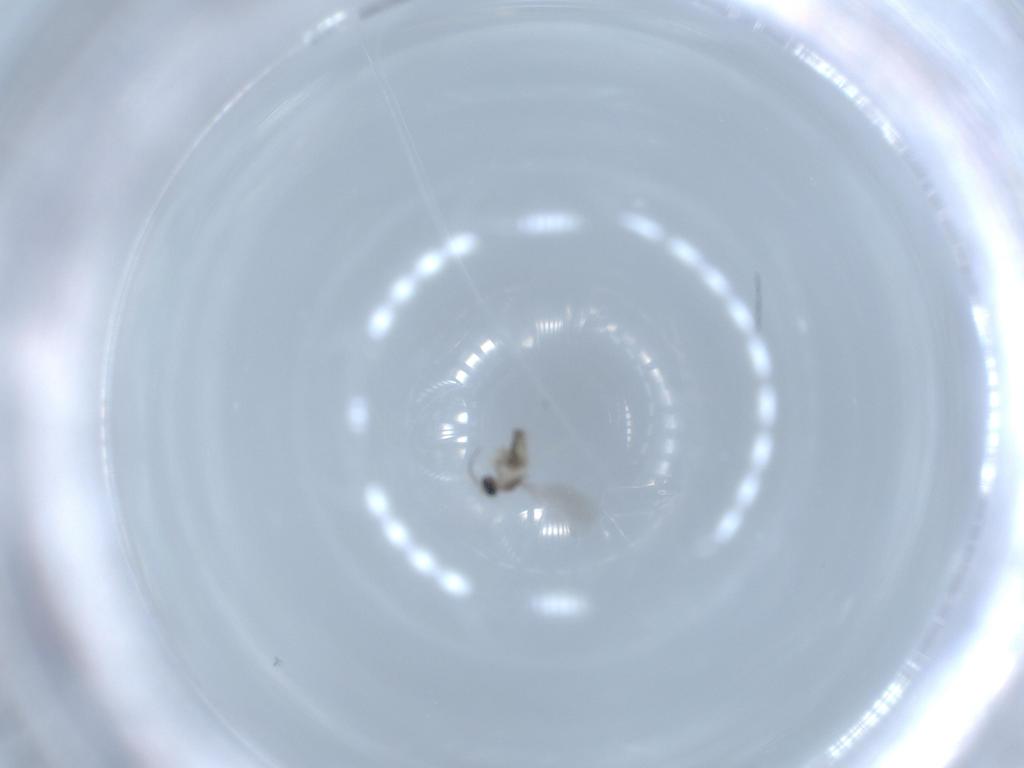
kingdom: Animalia
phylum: Arthropoda
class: Insecta
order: Diptera
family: Cecidomyiidae
